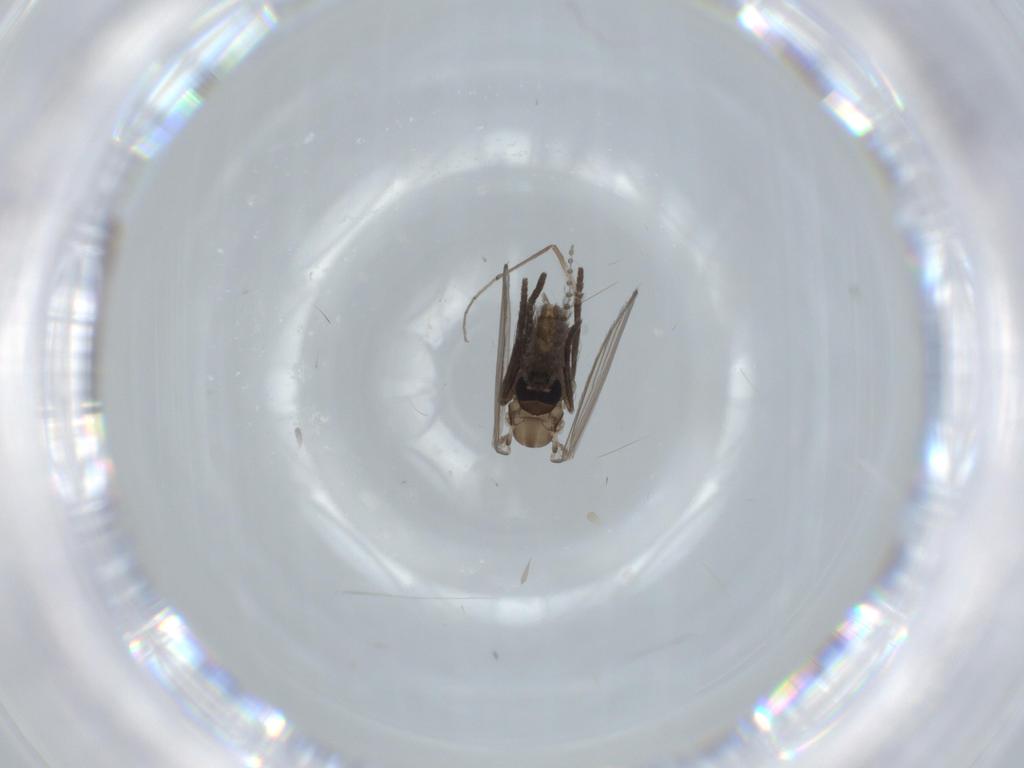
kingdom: Animalia
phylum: Arthropoda
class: Insecta
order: Diptera
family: Psychodidae
